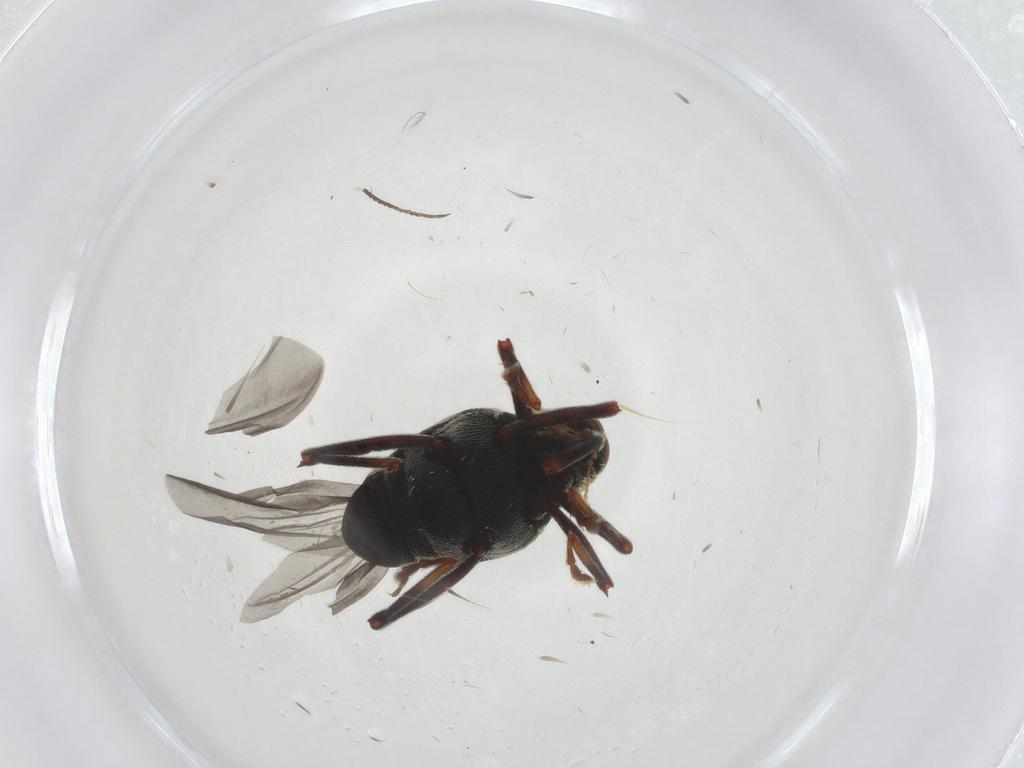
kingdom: Animalia
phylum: Arthropoda
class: Insecta
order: Coleoptera
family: Curculionidae
